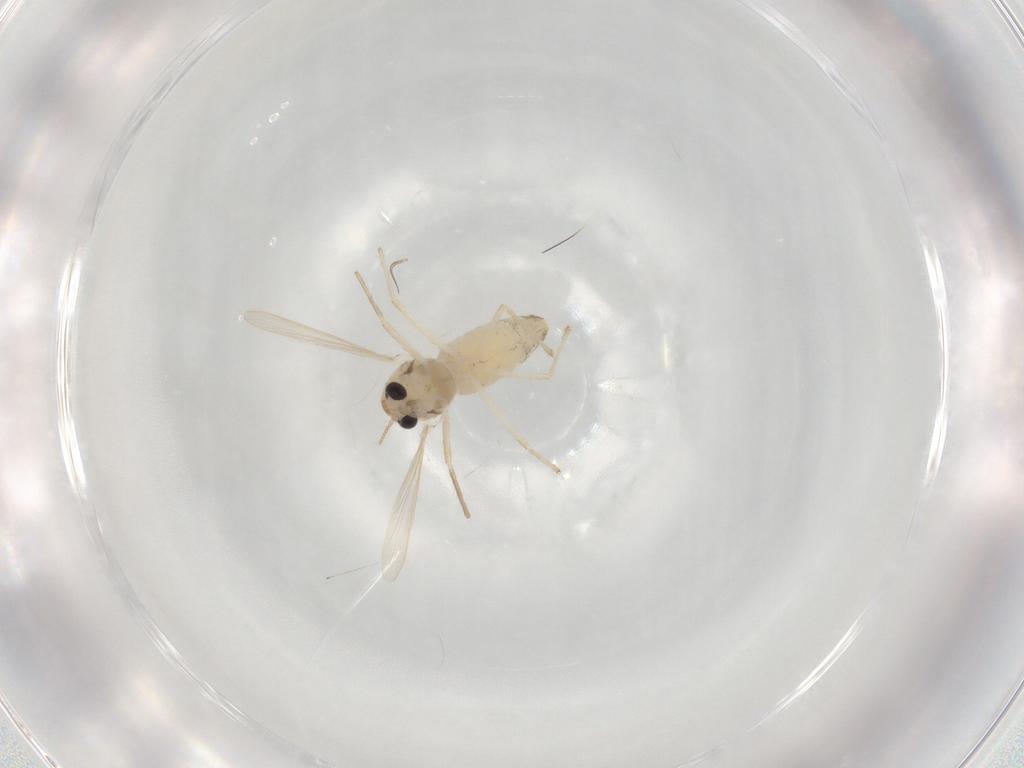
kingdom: Animalia
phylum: Arthropoda
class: Insecta
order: Diptera
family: Chironomidae
